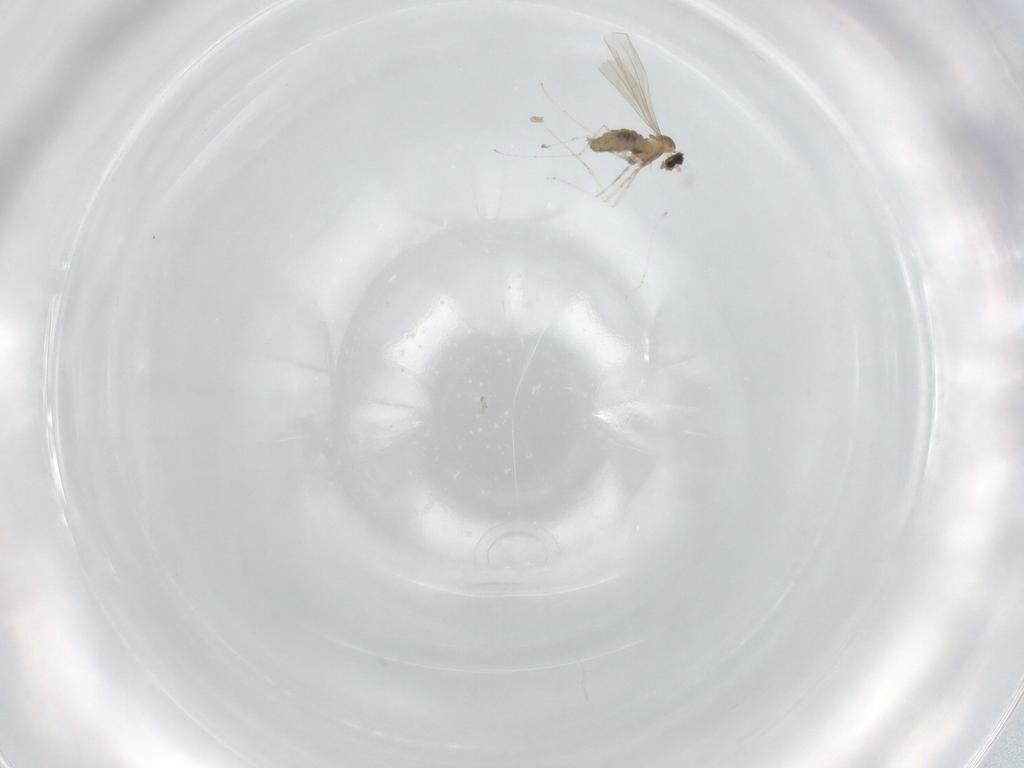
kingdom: Animalia
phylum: Arthropoda
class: Insecta
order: Diptera
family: Cecidomyiidae
